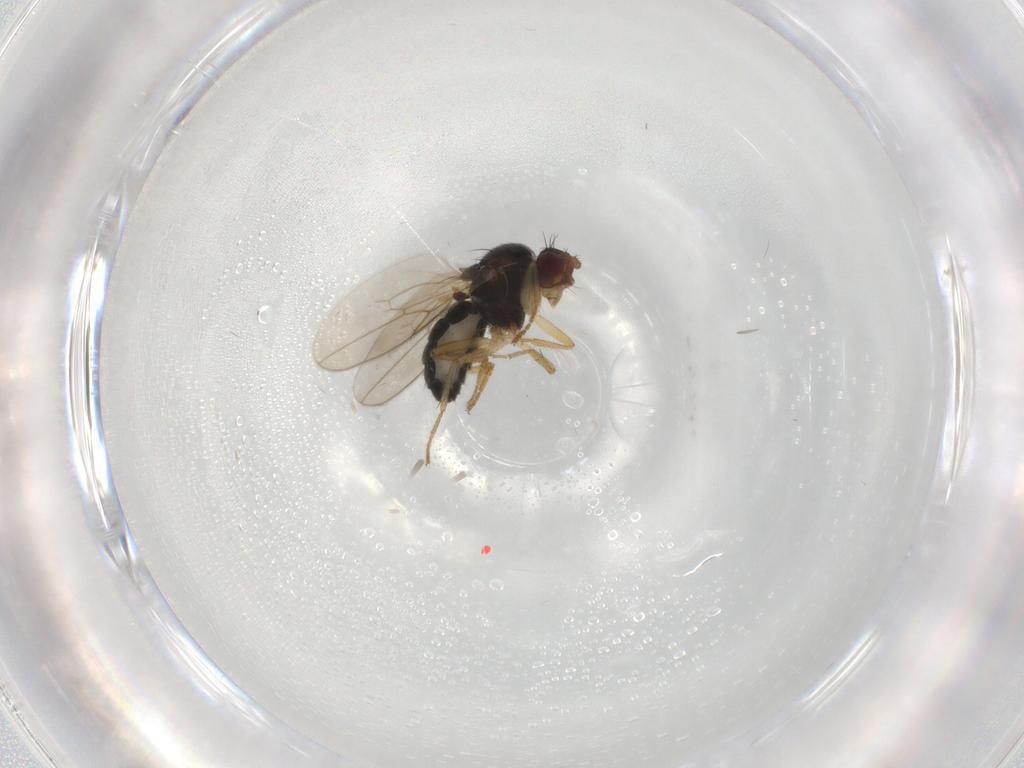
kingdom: Animalia
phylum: Arthropoda
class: Insecta
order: Diptera
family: Sphaeroceridae
